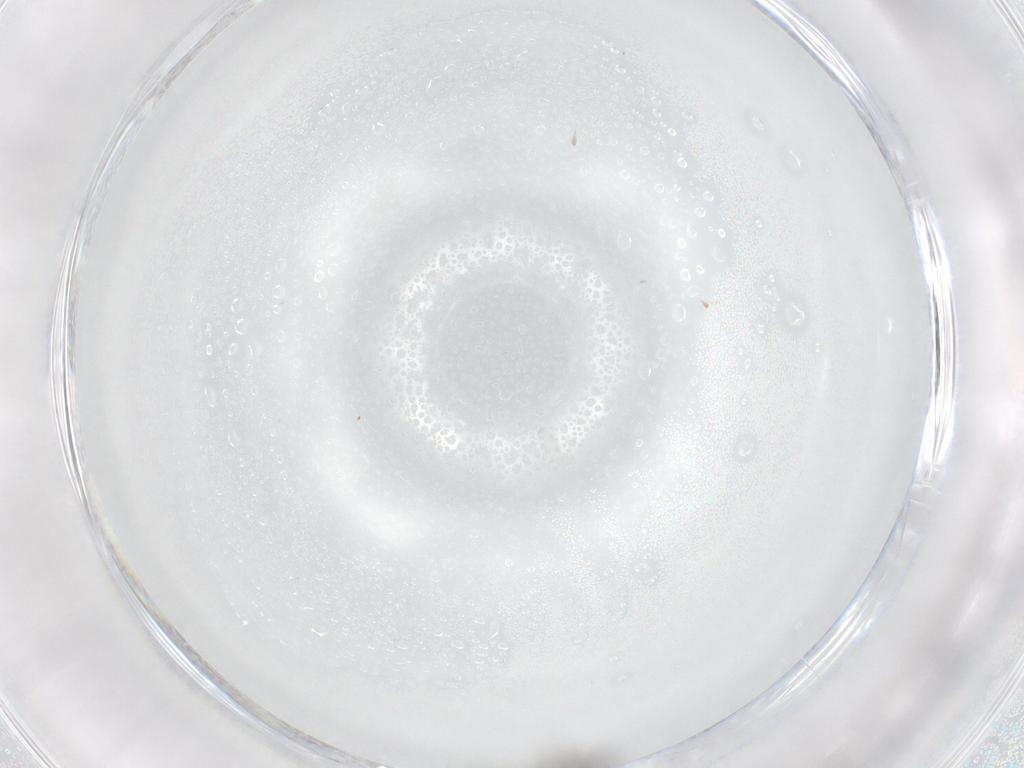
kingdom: Animalia
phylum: Arthropoda
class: Insecta
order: Diptera
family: Chironomidae
